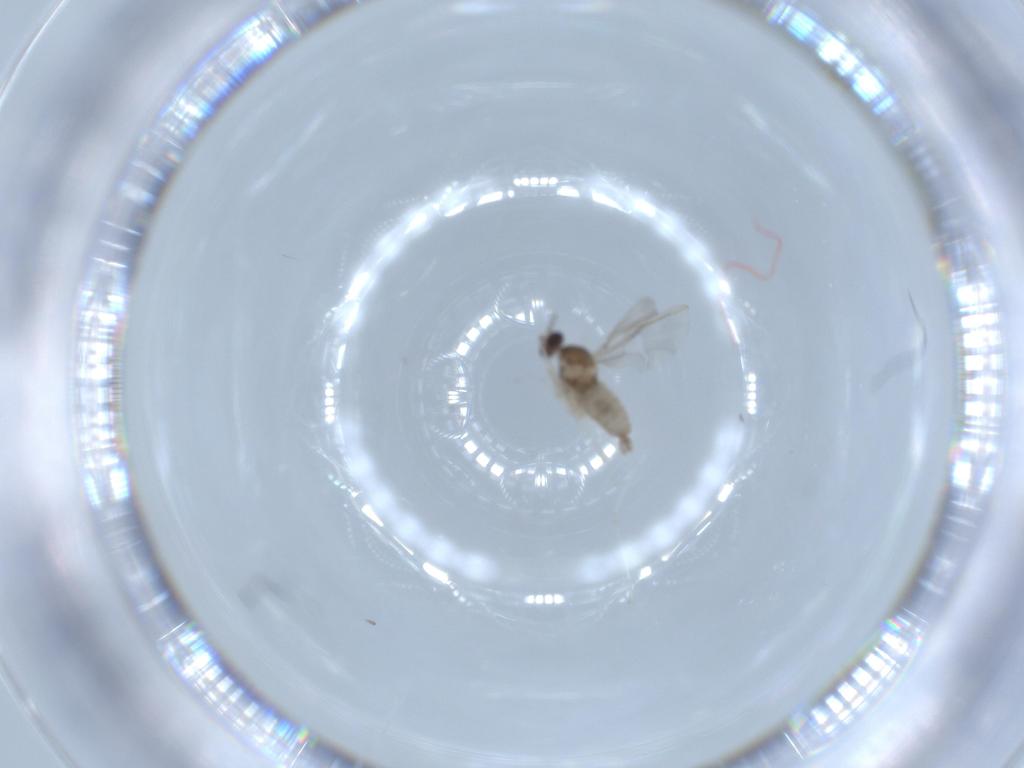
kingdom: Animalia
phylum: Arthropoda
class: Insecta
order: Diptera
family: Cecidomyiidae
